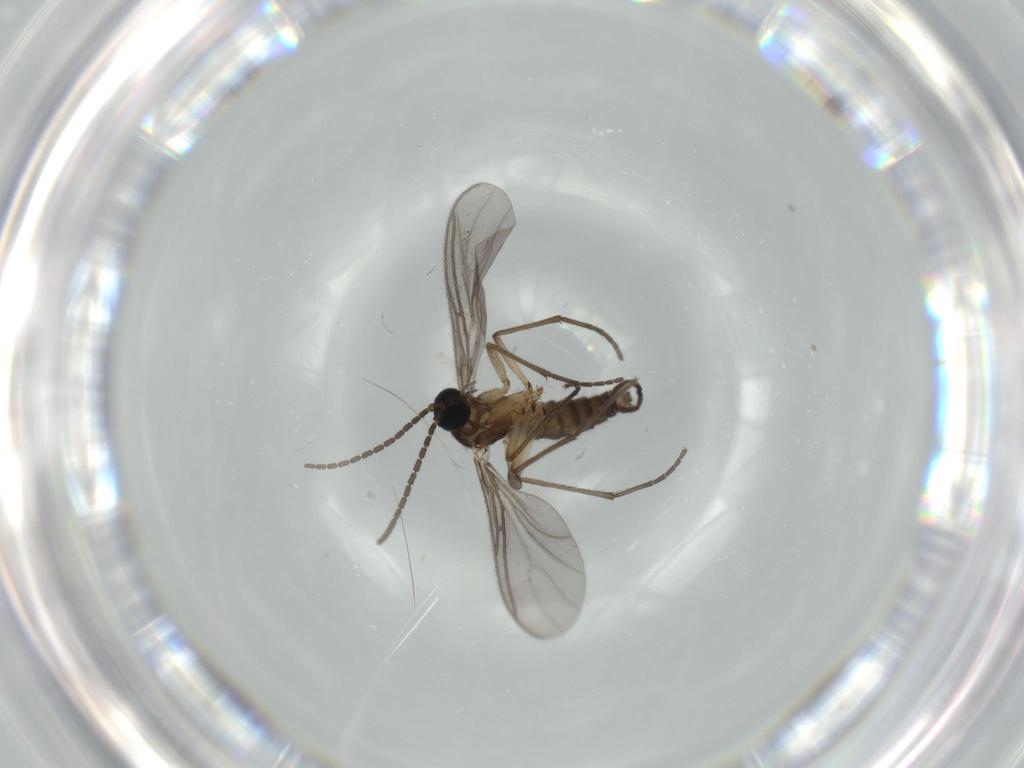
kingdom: Animalia
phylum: Arthropoda
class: Insecta
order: Diptera
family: Sciaridae
